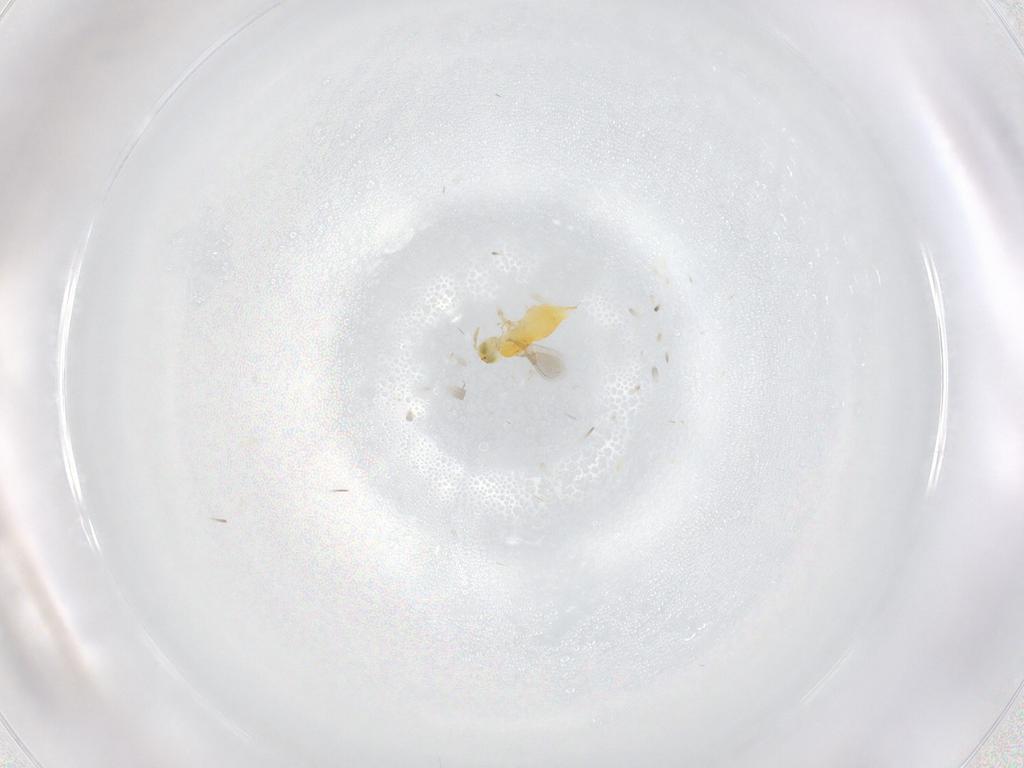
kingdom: Animalia
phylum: Arthropoda
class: Insecta
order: Hymenoptera
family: Aphelinidae
